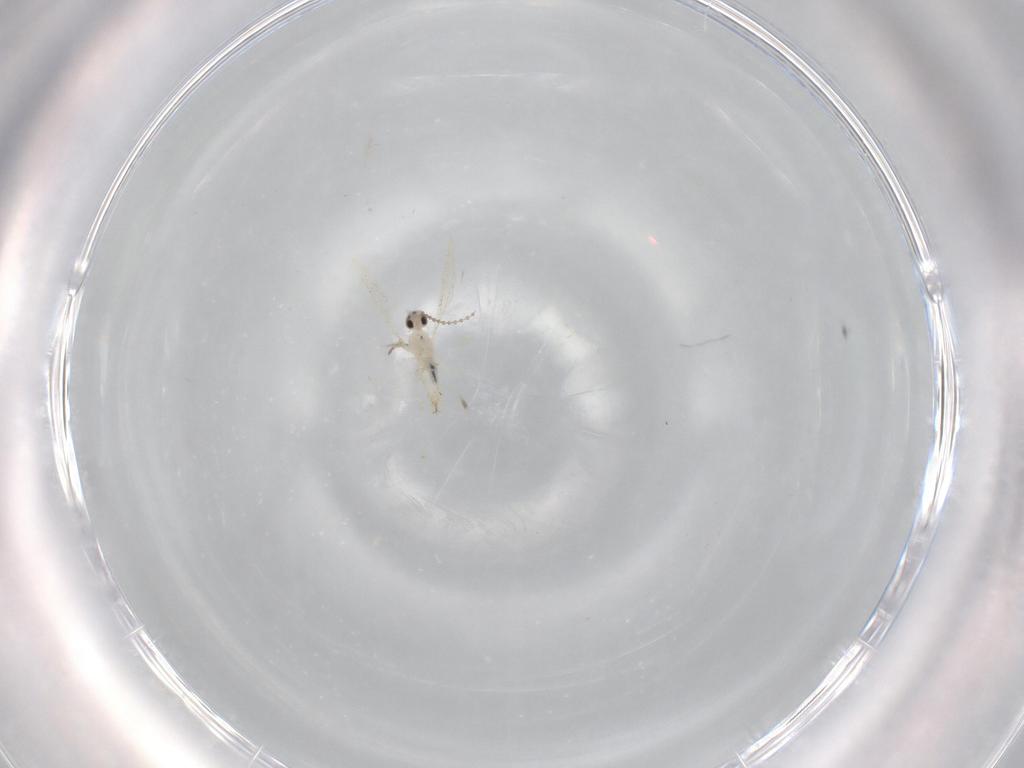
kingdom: Animalia
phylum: Arthropoda
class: Insecta
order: Diptera
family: Cecidomyiidae
